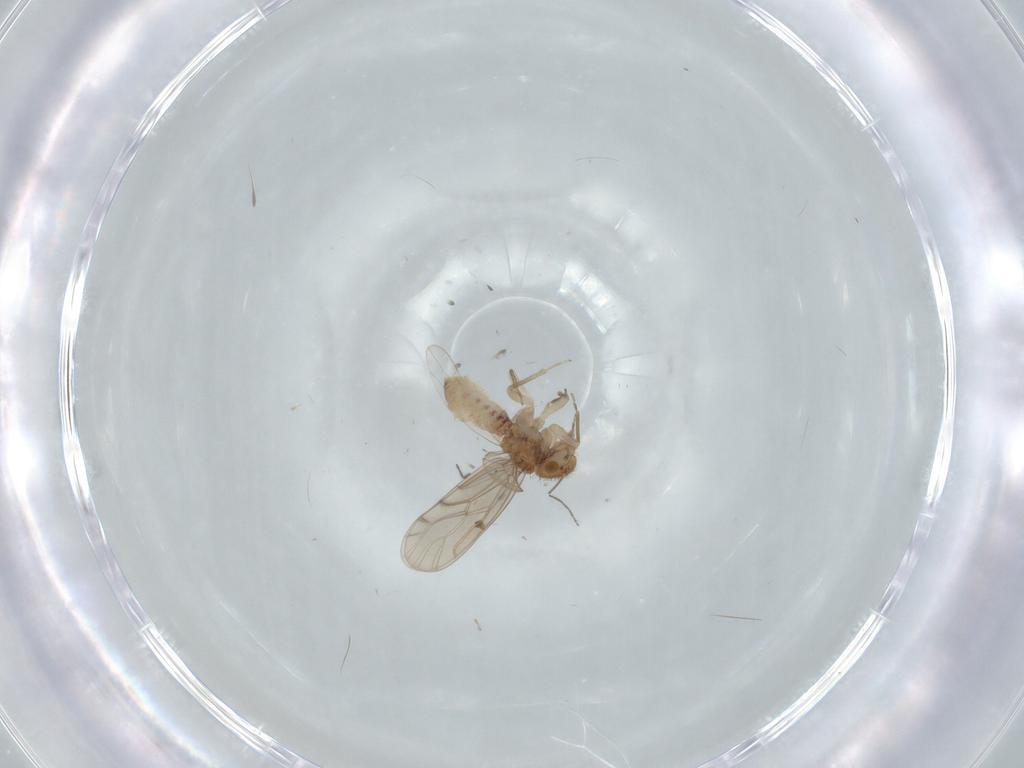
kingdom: Animalia
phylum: Arthropoda
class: Insecta
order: Psocodea
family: Ectopsocidae
